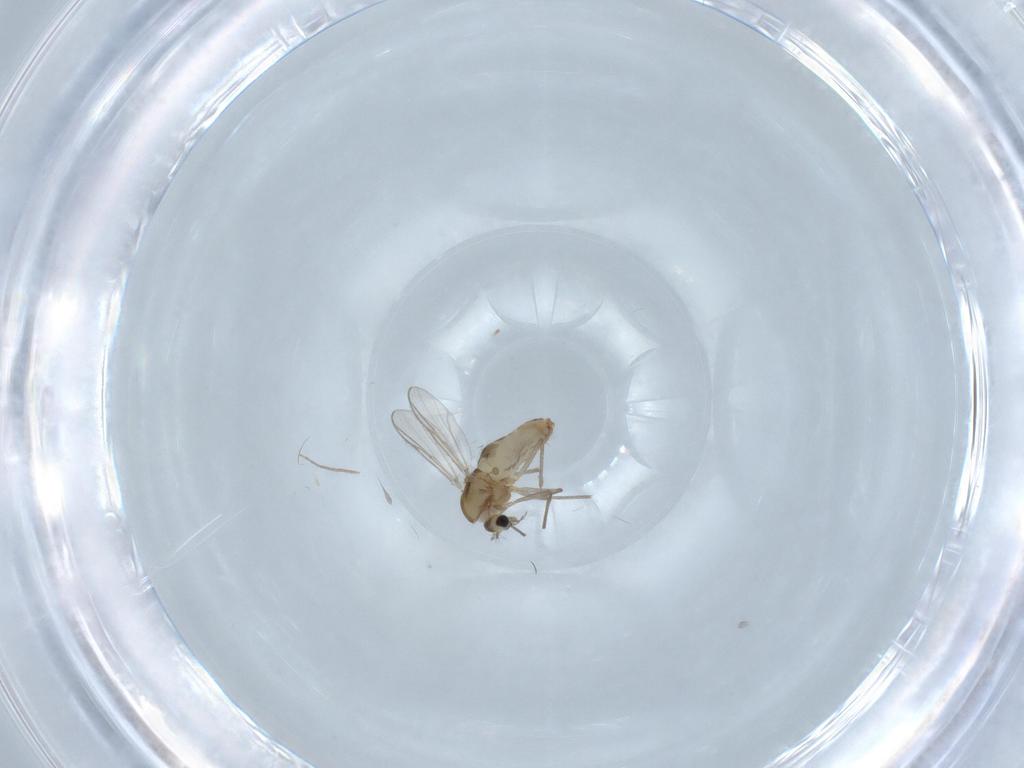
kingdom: Animalia
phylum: Arthropoda
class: Insecta
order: Diptera
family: Chironomidae
